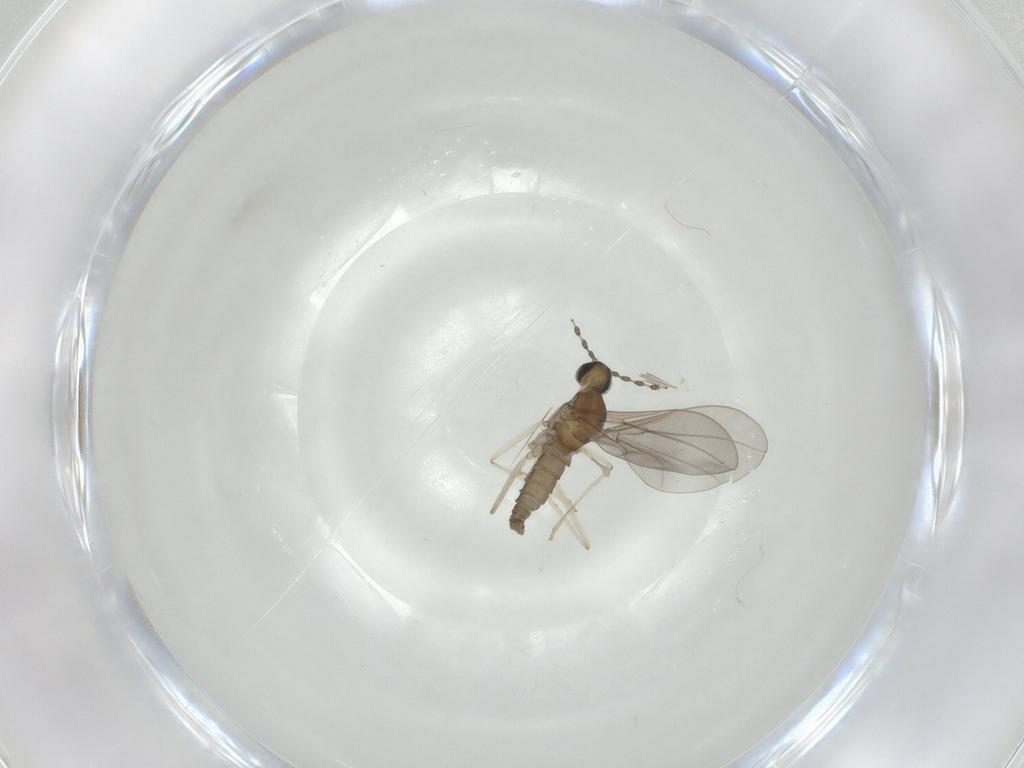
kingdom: Animalia
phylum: Arthropoda
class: Insecta
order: Diptera
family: Cecidomyiidae
